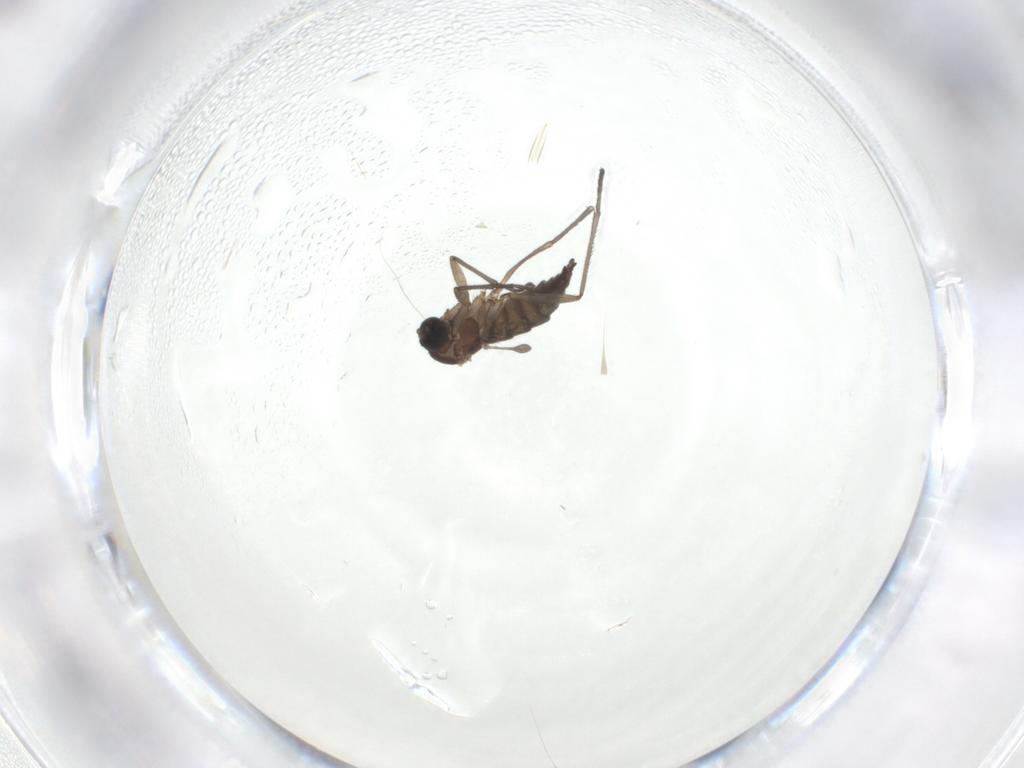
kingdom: Animalia
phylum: Arthropoda
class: Insecta
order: Diptera
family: Sciaridae
